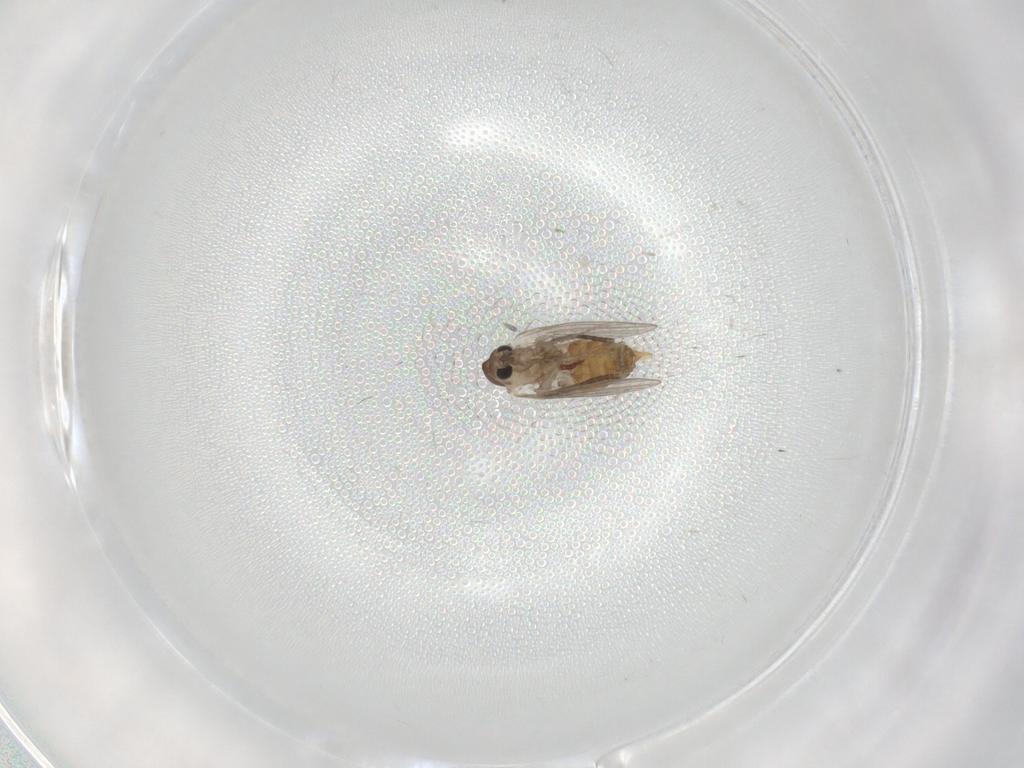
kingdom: Animalia
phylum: Arthropoda
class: Insecta
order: Diptera
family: Psychodidae
